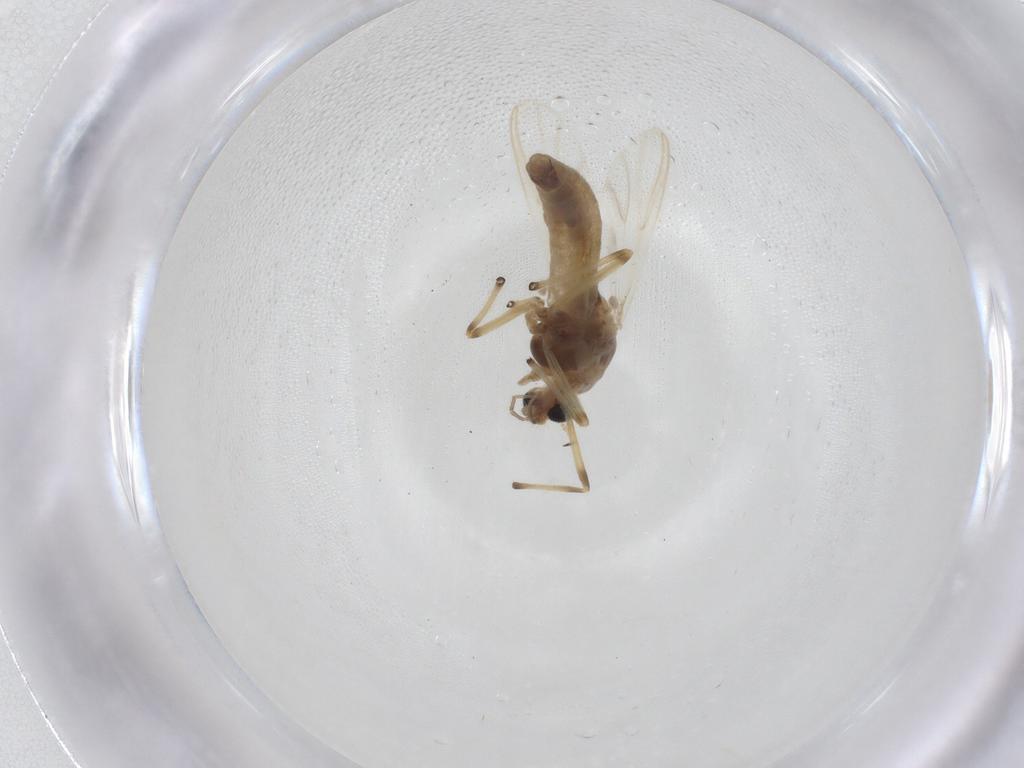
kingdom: Animalia
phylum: Arthropoda
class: Insecta
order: Diptera
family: Chironomidae
